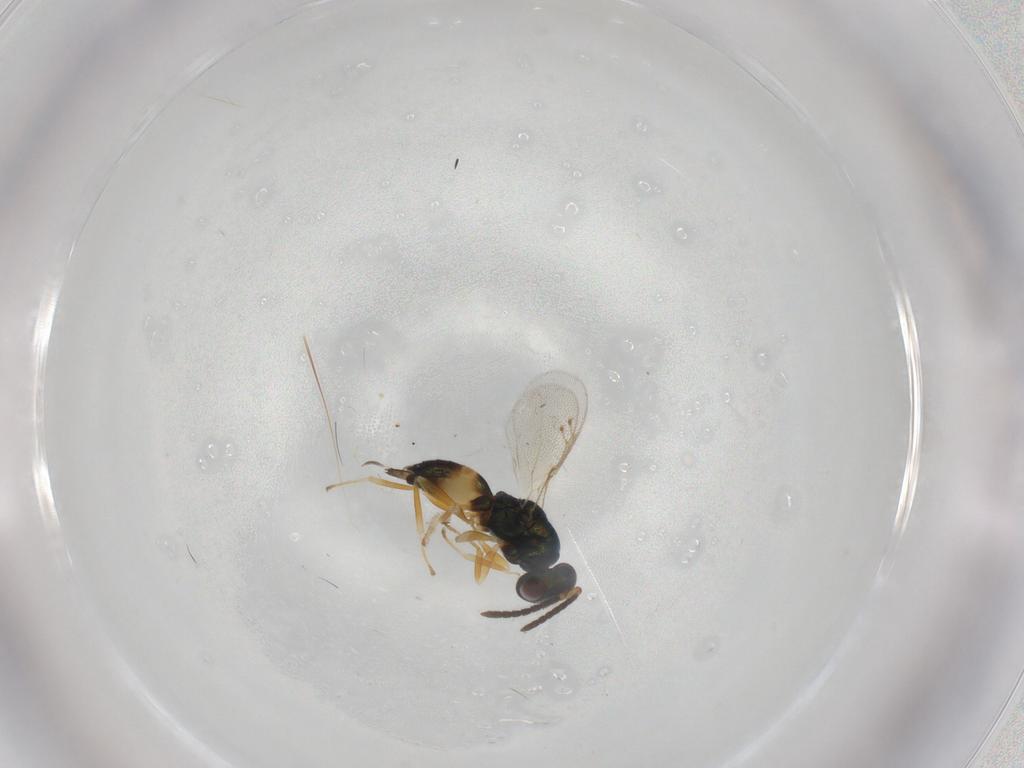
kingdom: Animalia
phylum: Arthropoda
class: Insecta
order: Hymenoptera
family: Pteromalidae
